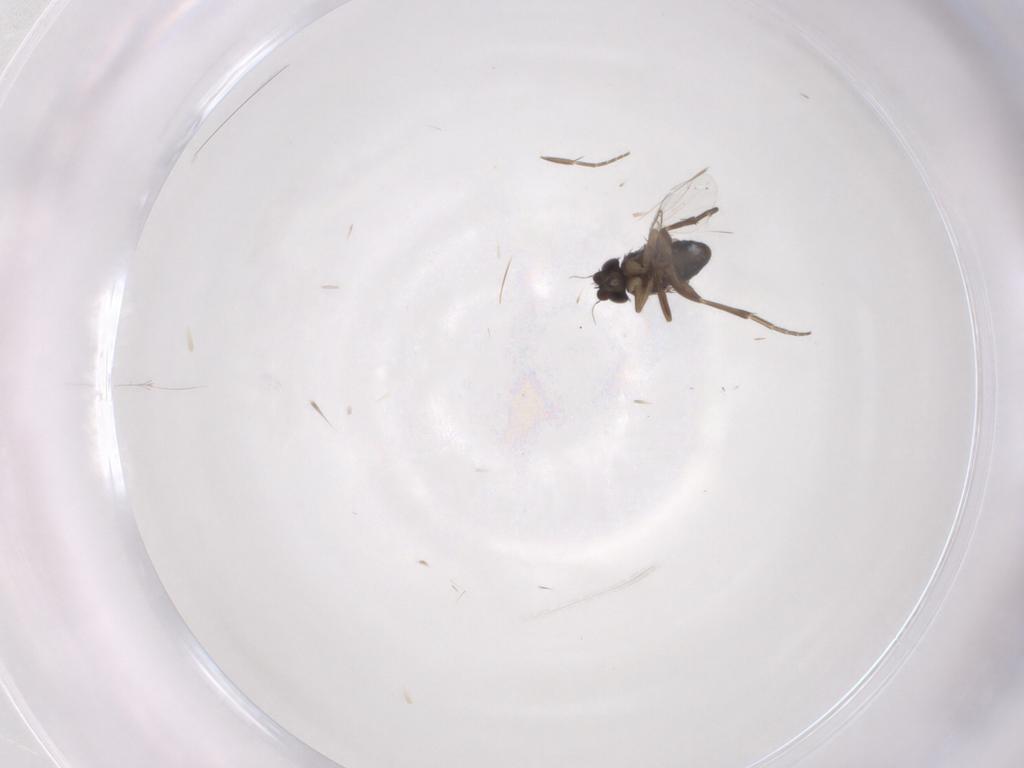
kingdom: Animalia
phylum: Arthropoda
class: Insecta
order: Diptera
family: Phoridae
